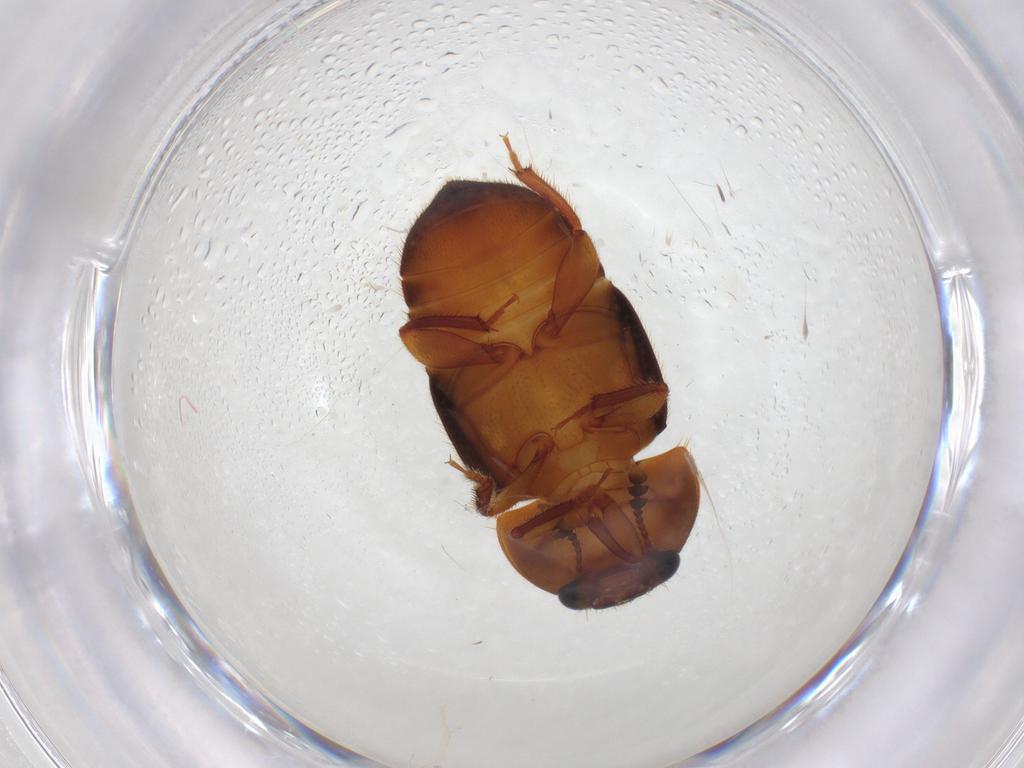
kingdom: Animalia
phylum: Arthropoda
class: Insecta
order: Coleoptera
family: Nitidulidae
